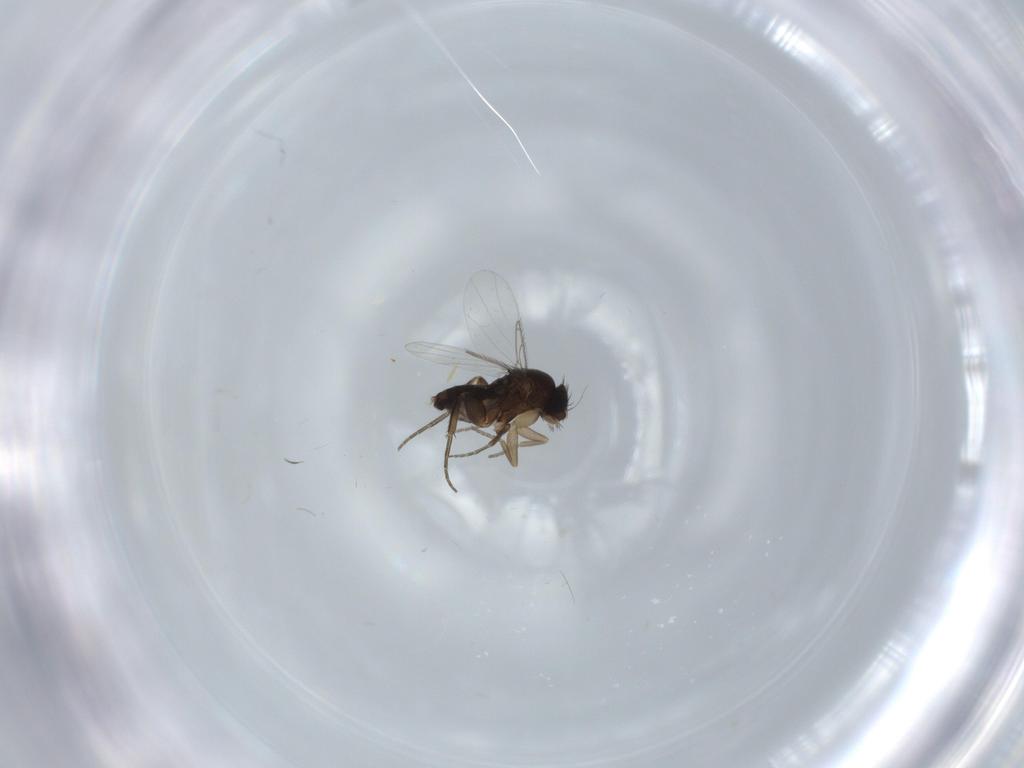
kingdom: Animalia
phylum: Arthropoda
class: Insecta
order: Diptera
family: Phoridae
